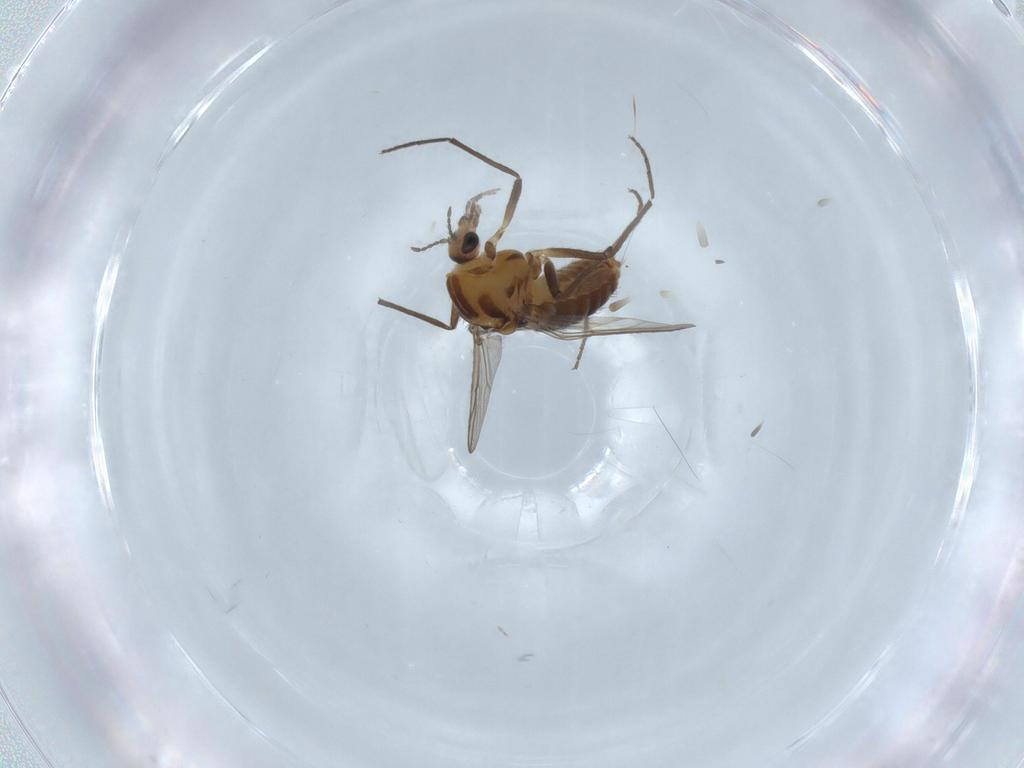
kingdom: Animalia
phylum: Arthropoda
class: Insecta
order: Diptera
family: Chironomidae
